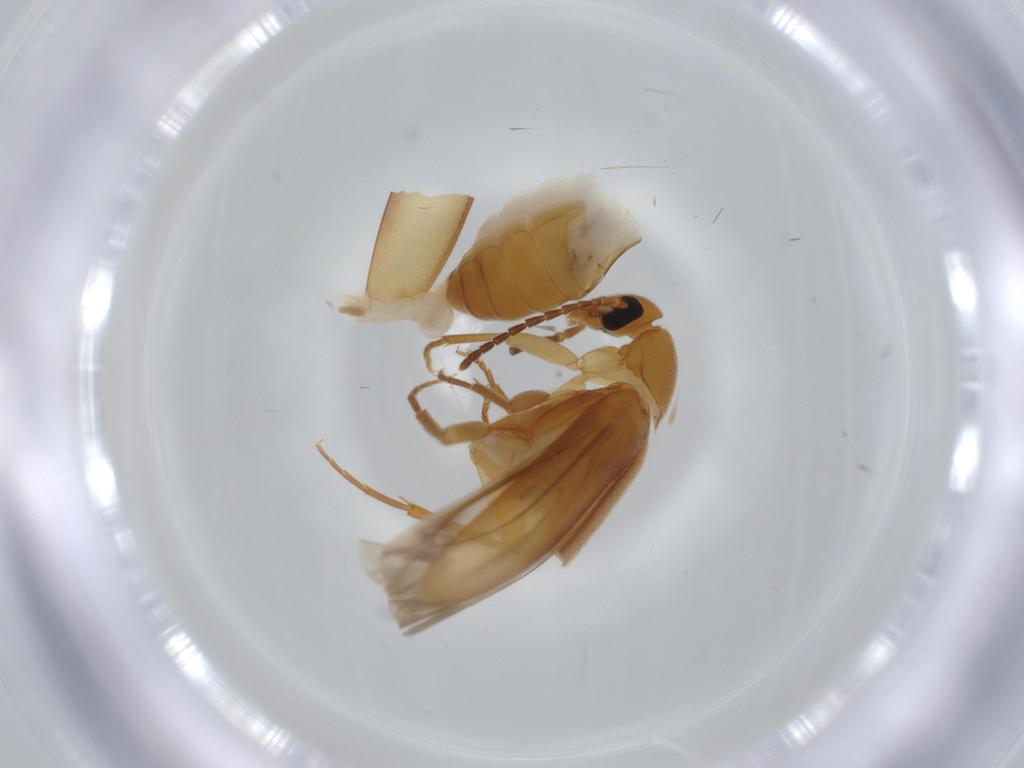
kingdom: Animalia
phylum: Arthropoda
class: Insecta
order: Coleoptera
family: Scraptiidae
